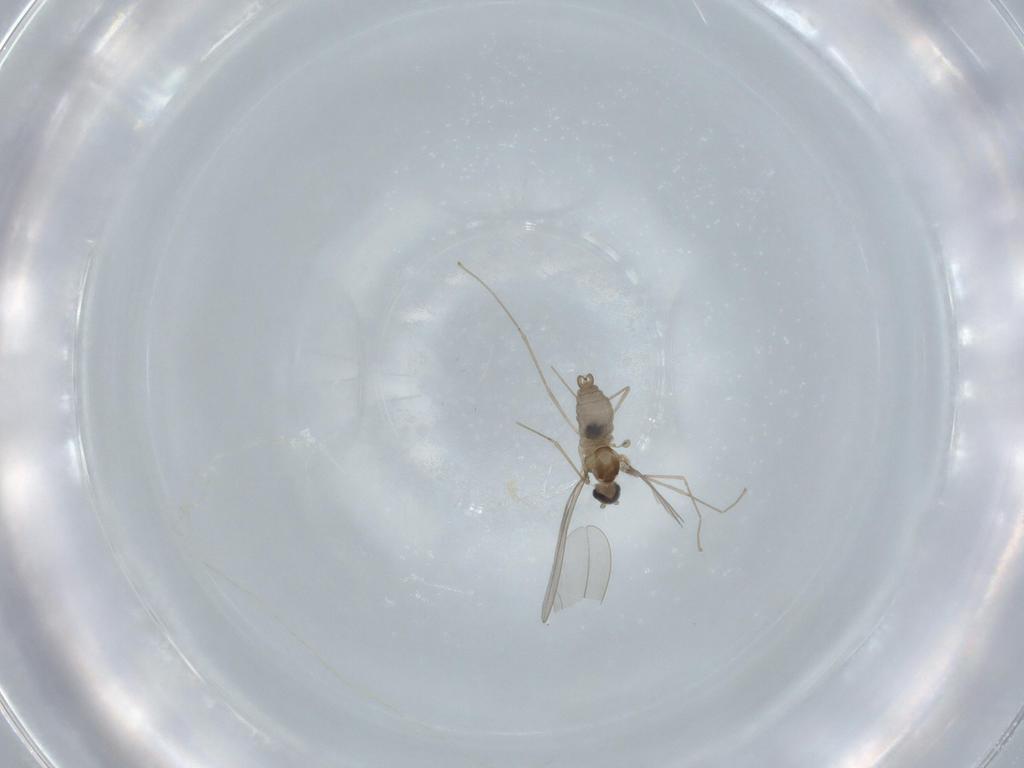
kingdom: Animalia
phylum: Arthropoda
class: Insecta
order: Diptera
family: Cecidomyiidae
